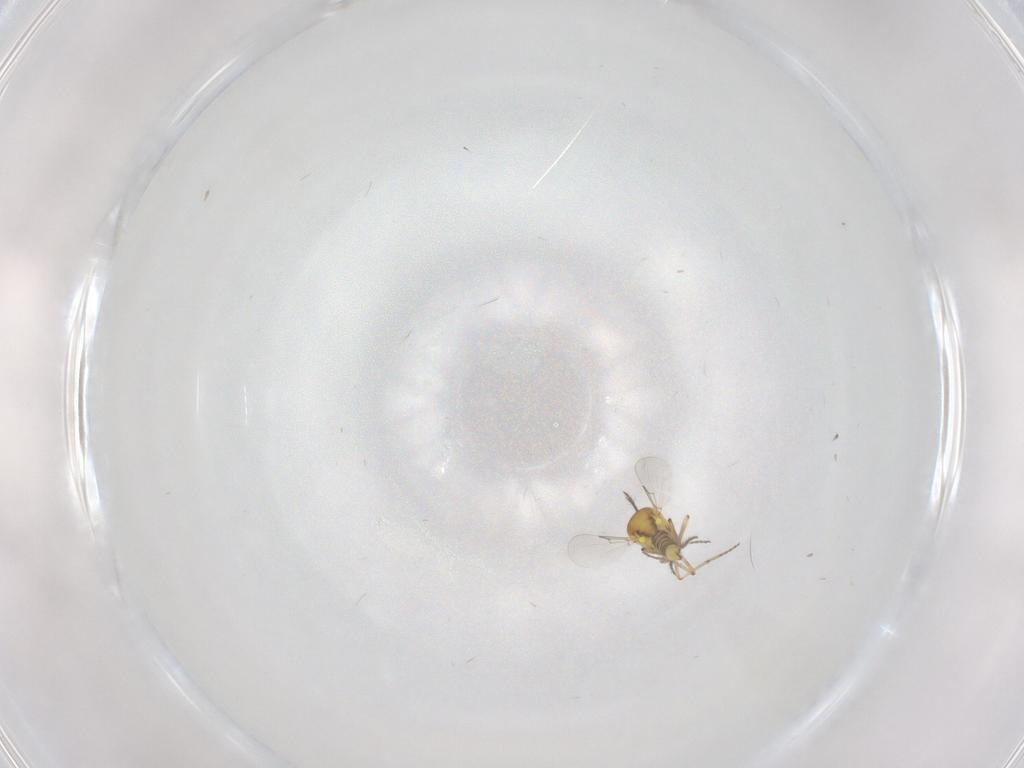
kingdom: Animalia
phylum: Arthropoda
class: Insecta
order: Diptera
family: Ceratopogonidae
